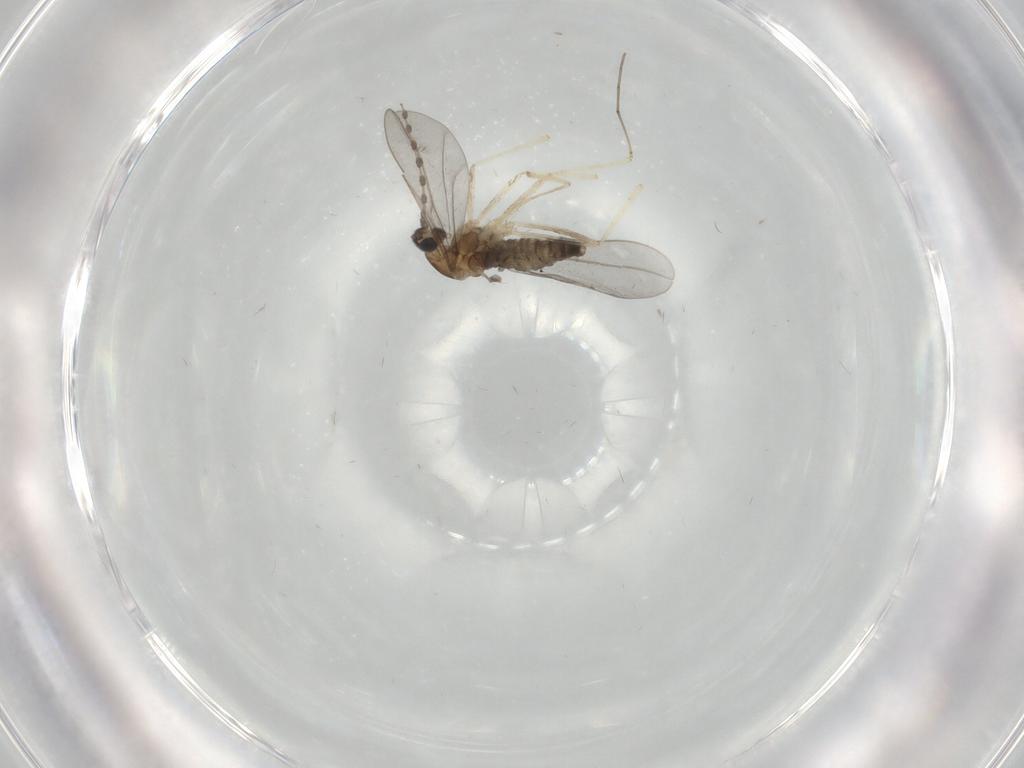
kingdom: Animalia
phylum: Arthropoda
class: Insecta
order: Diptera
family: Cecidomyiidae
